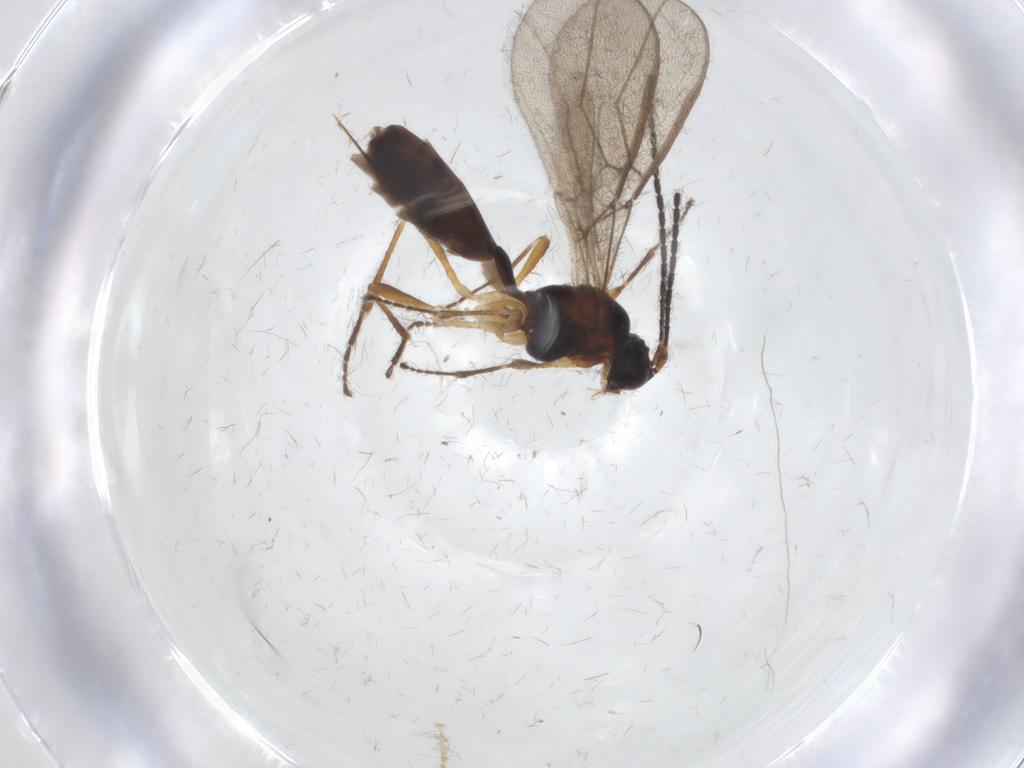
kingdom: Animalia
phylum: Arthropoda
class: Insecta
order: Hymenoptera
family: Braconidae
